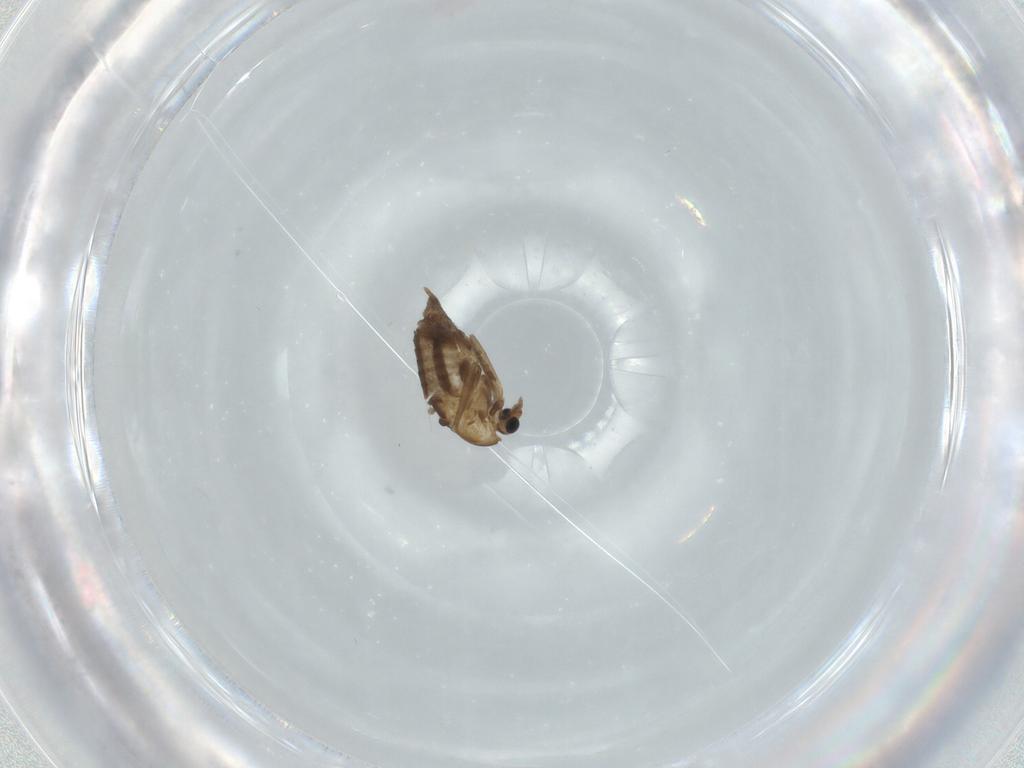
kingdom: Animalia
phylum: Arthropoda
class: Insecta
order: Diptera
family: Chironomidae
